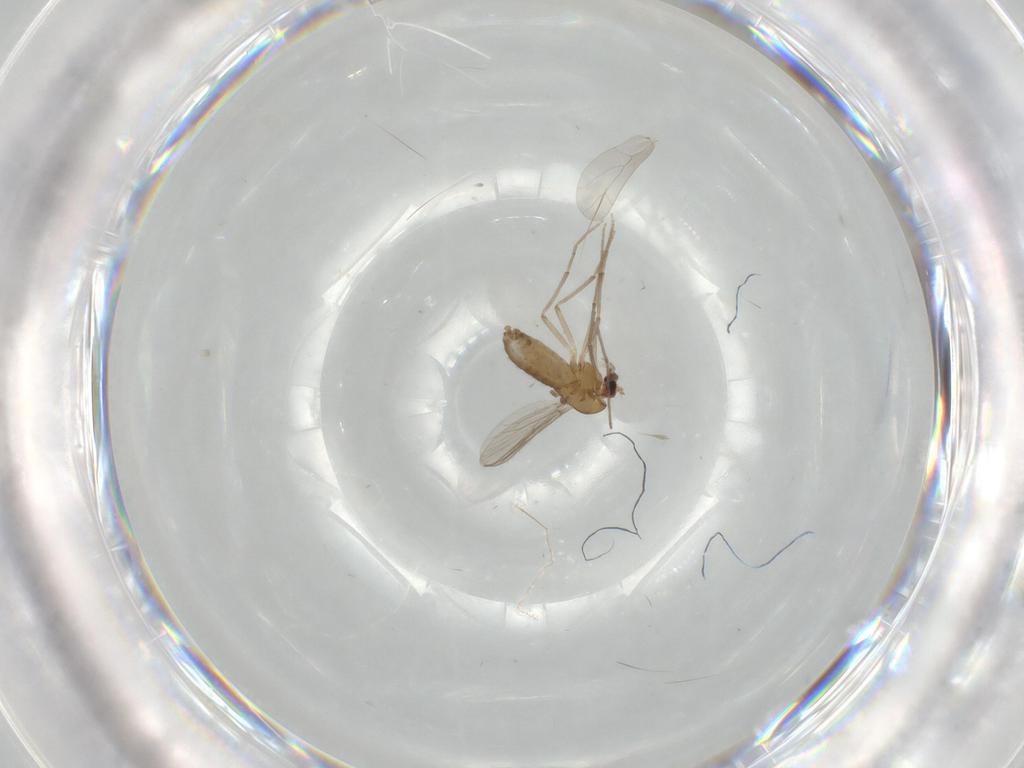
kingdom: Animalia
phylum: Arthropoda
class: Insecta
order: Diptera
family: Chironomidae
